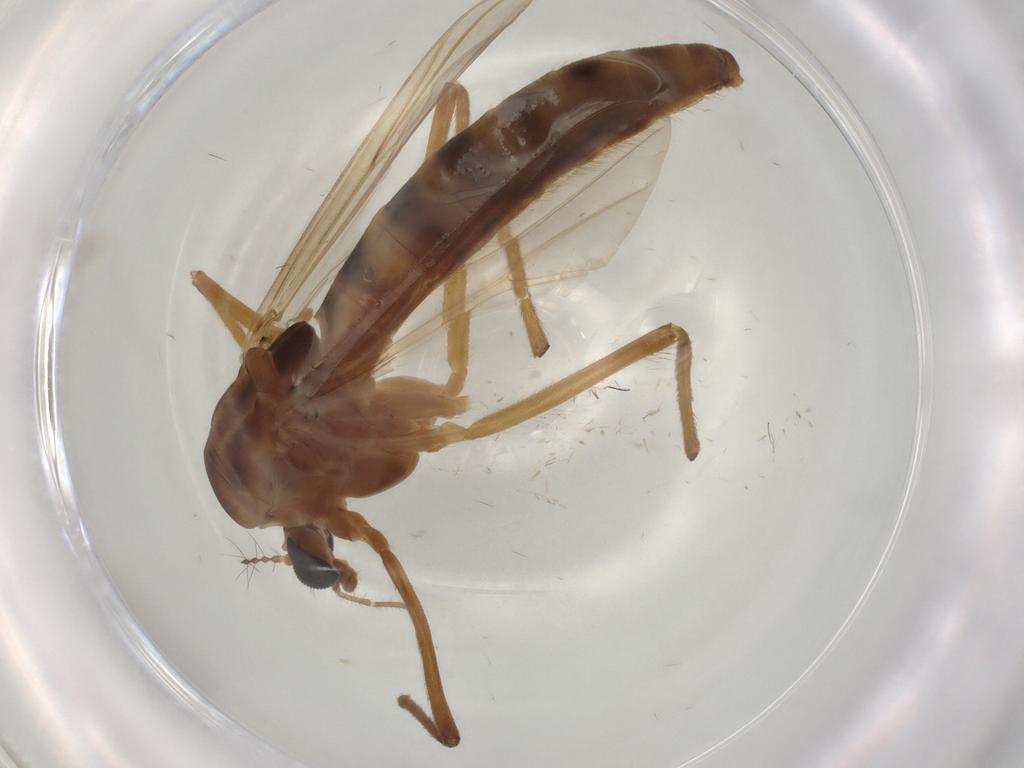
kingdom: Animalia
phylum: Arthropoda
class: Insecta
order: Diptera
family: Chironomidae
